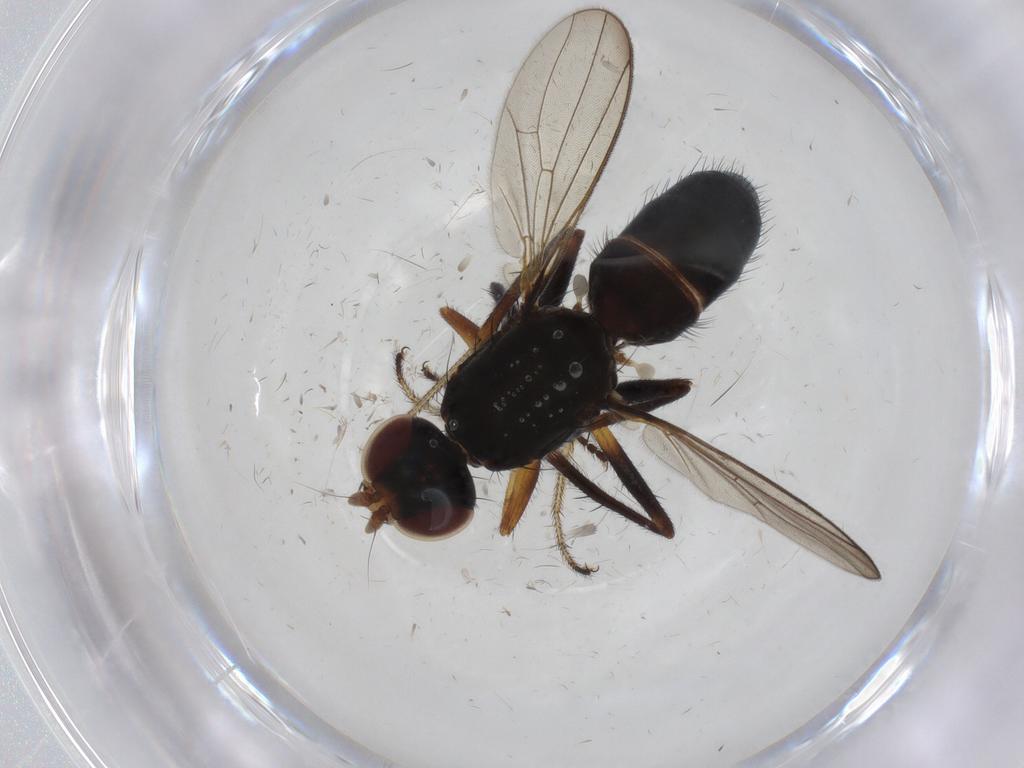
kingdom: Animalia
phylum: Arthropoda
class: Insecta
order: Diptera
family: Sepsidae
